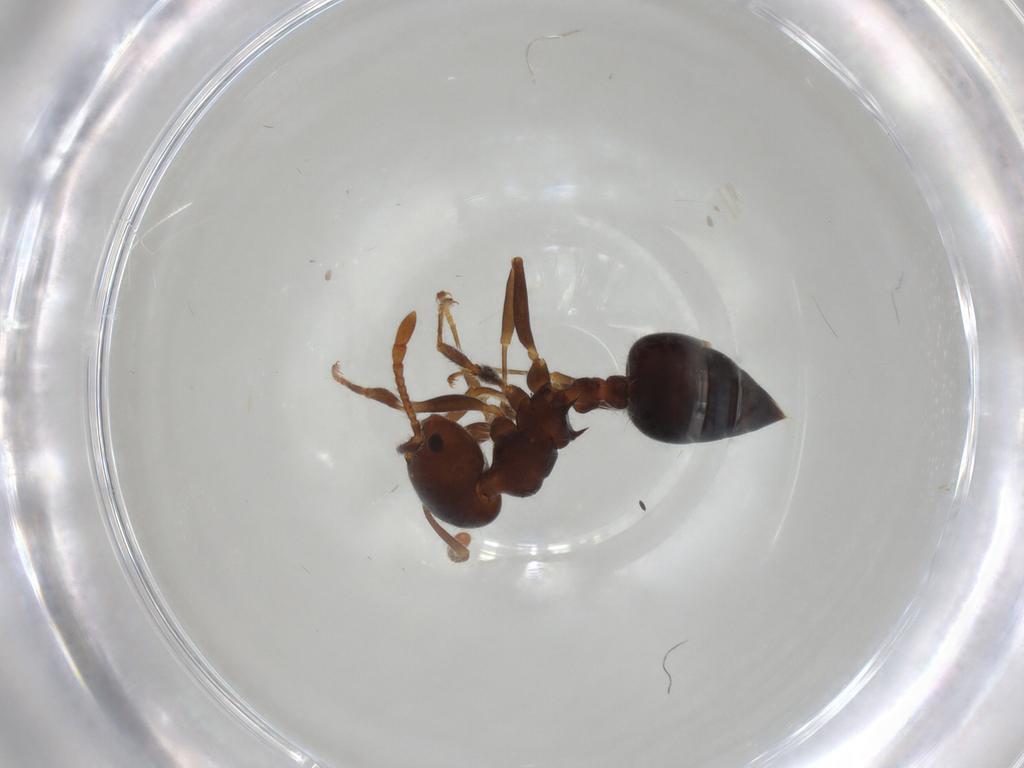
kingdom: Animalia
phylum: Arthropoda
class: Insecta
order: Hymenoptera
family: Formicidae
